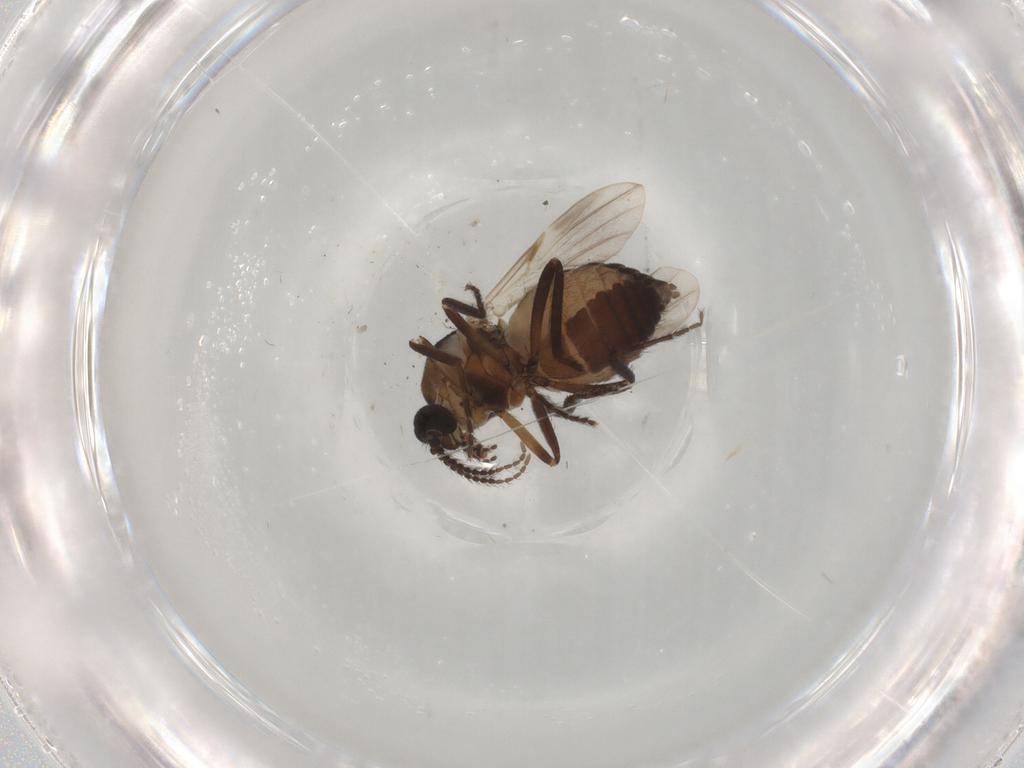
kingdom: Animalia
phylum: Arthropoda
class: Insecta
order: Diptera
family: Ceratopogonidae
